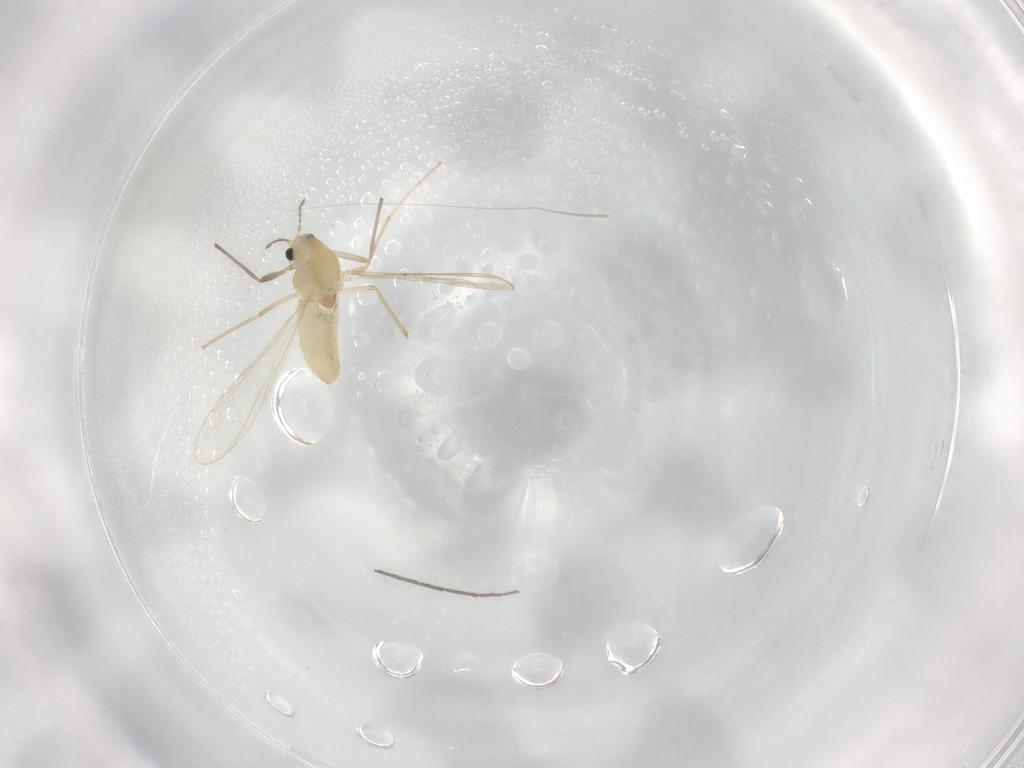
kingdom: Animalia
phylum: Arthropoda
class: Insecta
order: Diptera
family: Chironomidae
